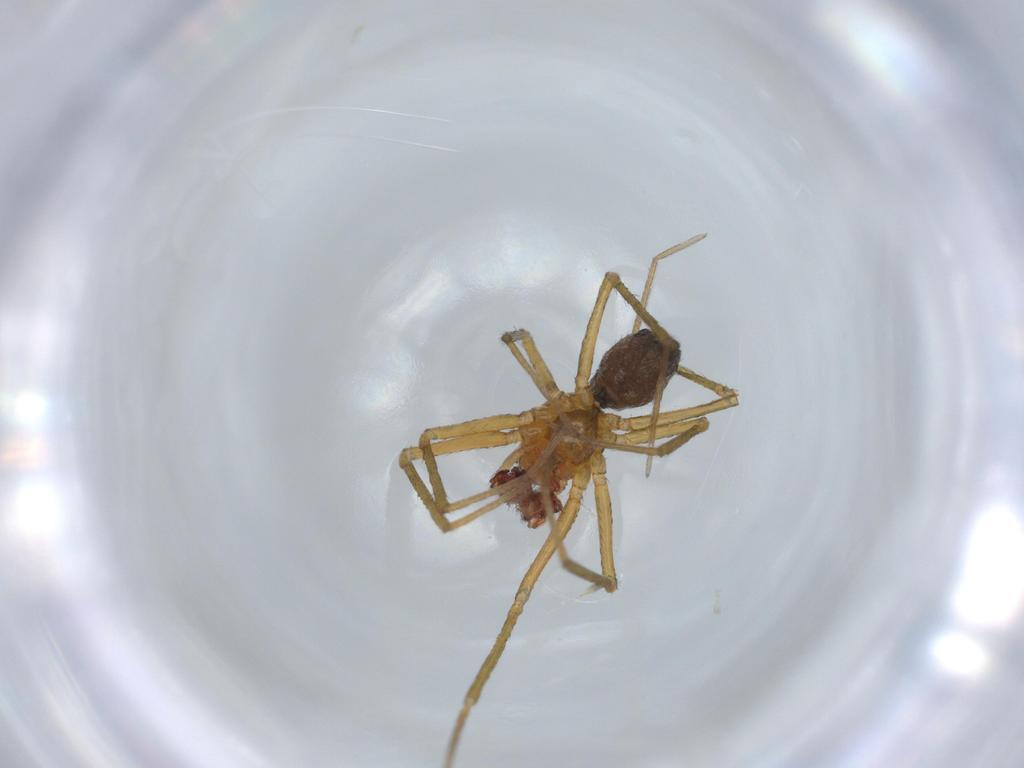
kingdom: Animalia
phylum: Arthropoda
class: Arachnida
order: Araneae
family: Linyphiidae
